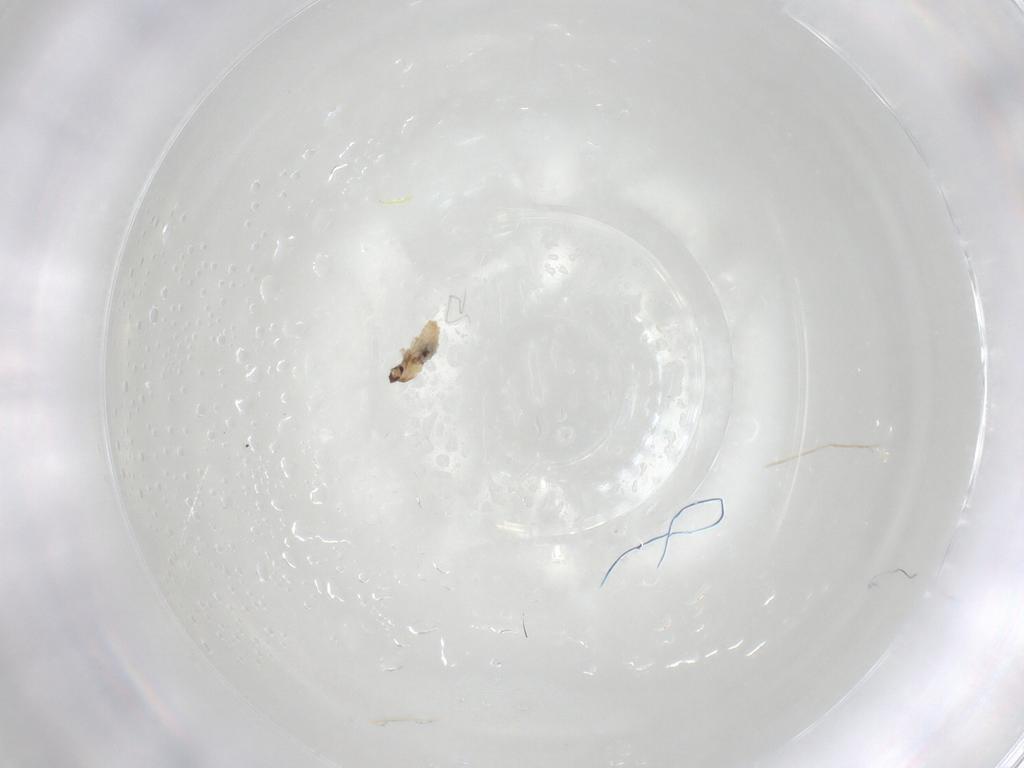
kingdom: Animalia
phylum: Arthropoda
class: Insecta
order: Diptera
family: Cecidomyiidae
